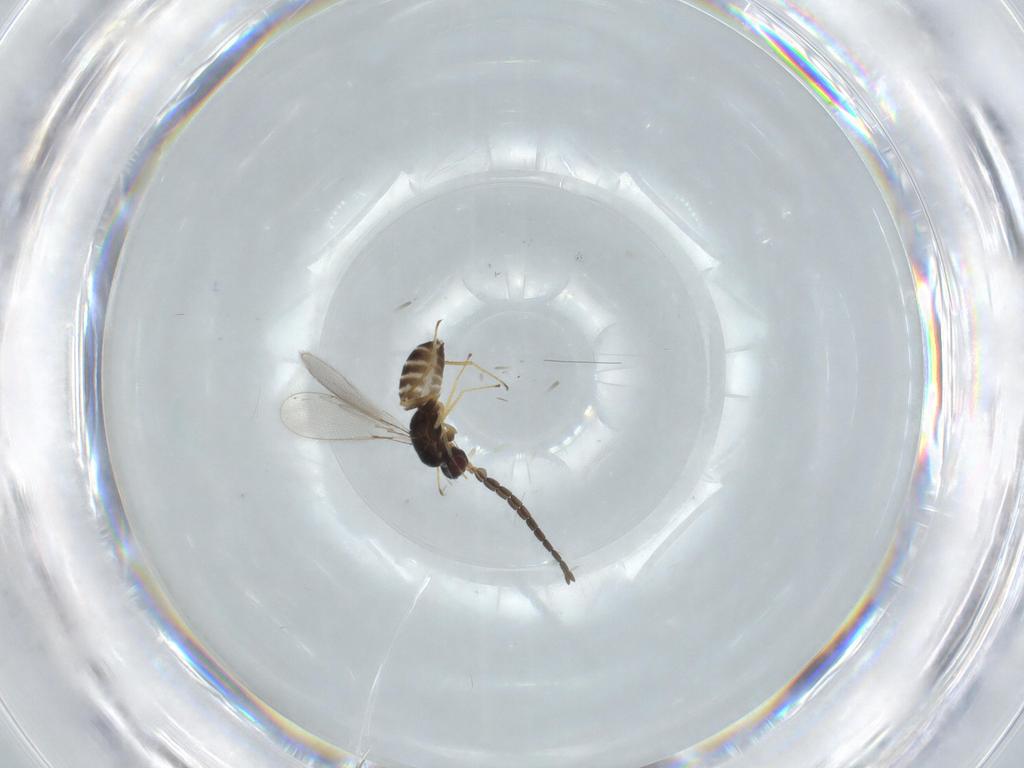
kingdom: Animalia
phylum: Arthropoda
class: Insecta
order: Hymenoptera
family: Mymaridae
